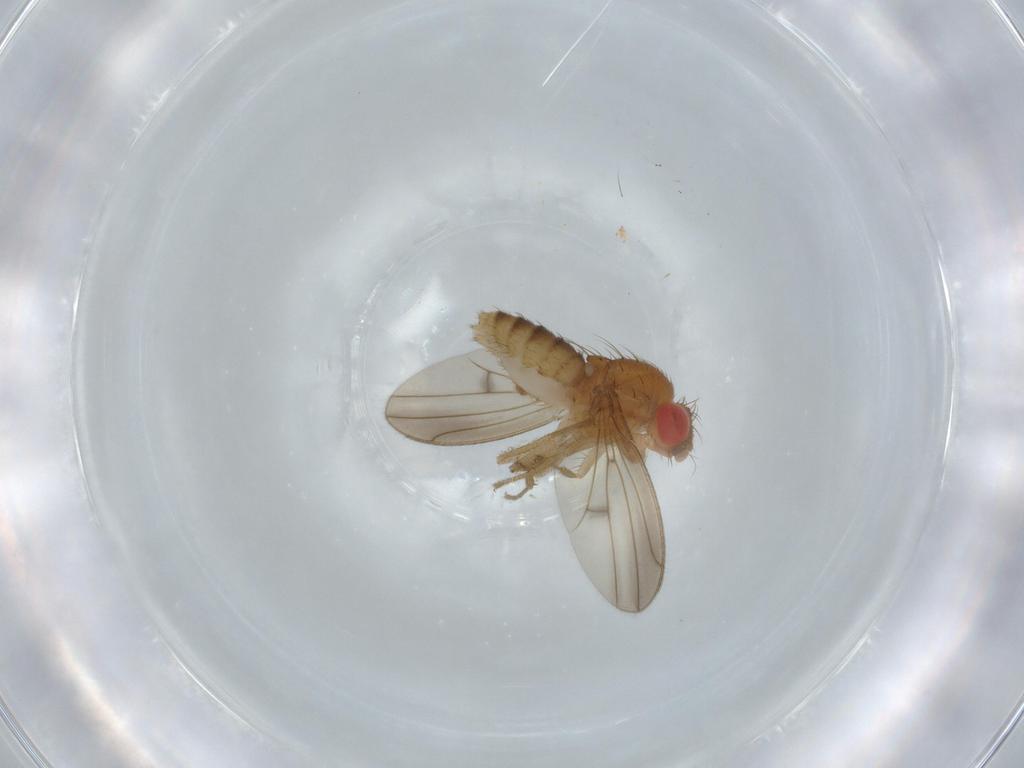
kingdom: Animalia
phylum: Arthropoda
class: Insecta
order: Diptera
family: Drosophilidae
